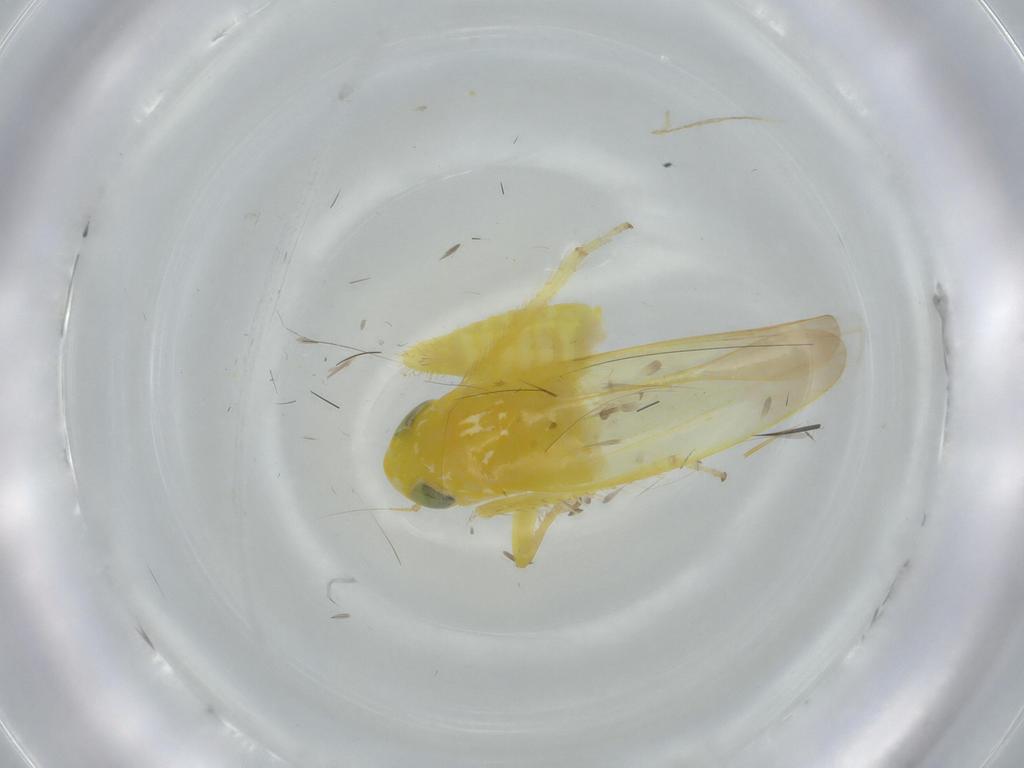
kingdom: Animalia
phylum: Arthropoda
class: Insecta
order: Hemiptera
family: Cicadellidae
